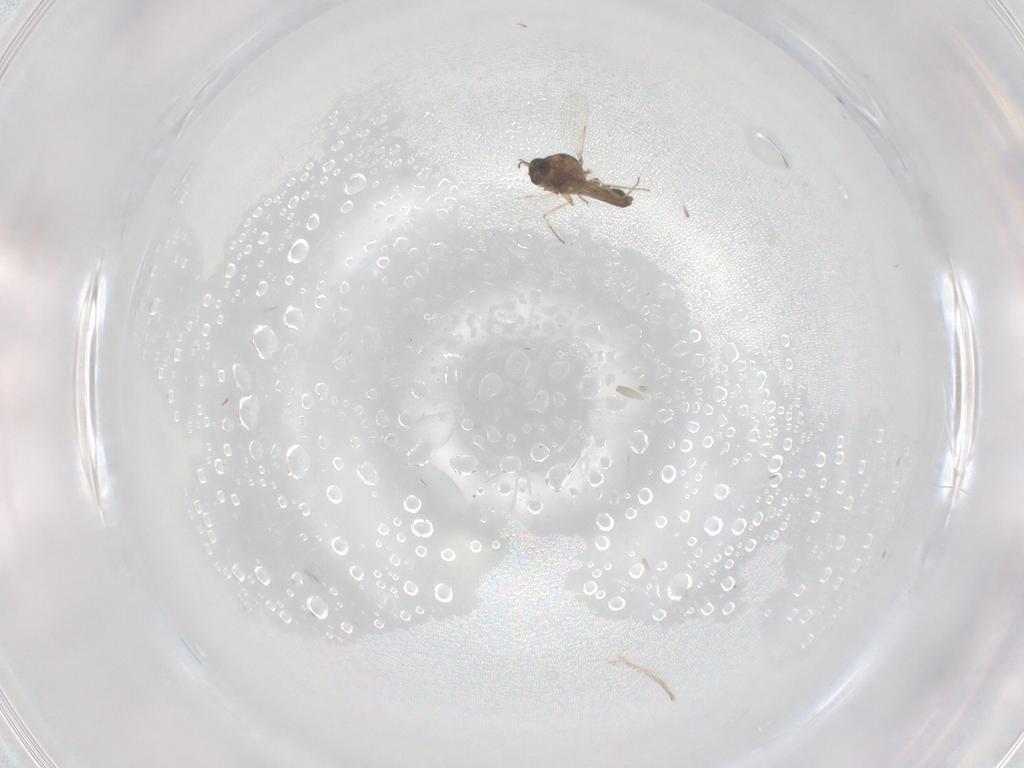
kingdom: Animalia
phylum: Arthropoda
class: Insecta
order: Diptera
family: Ceratopogonidae
